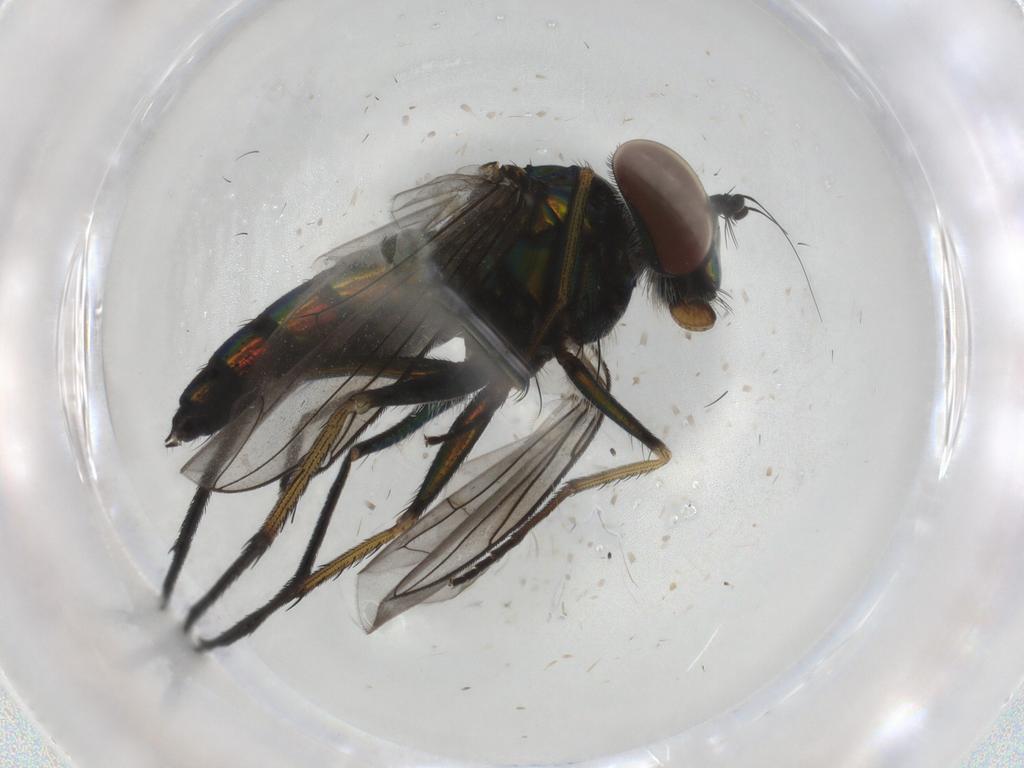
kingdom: Animalia
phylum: Arthropoda
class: Insecta
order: Diptera
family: Dolichopodidae
